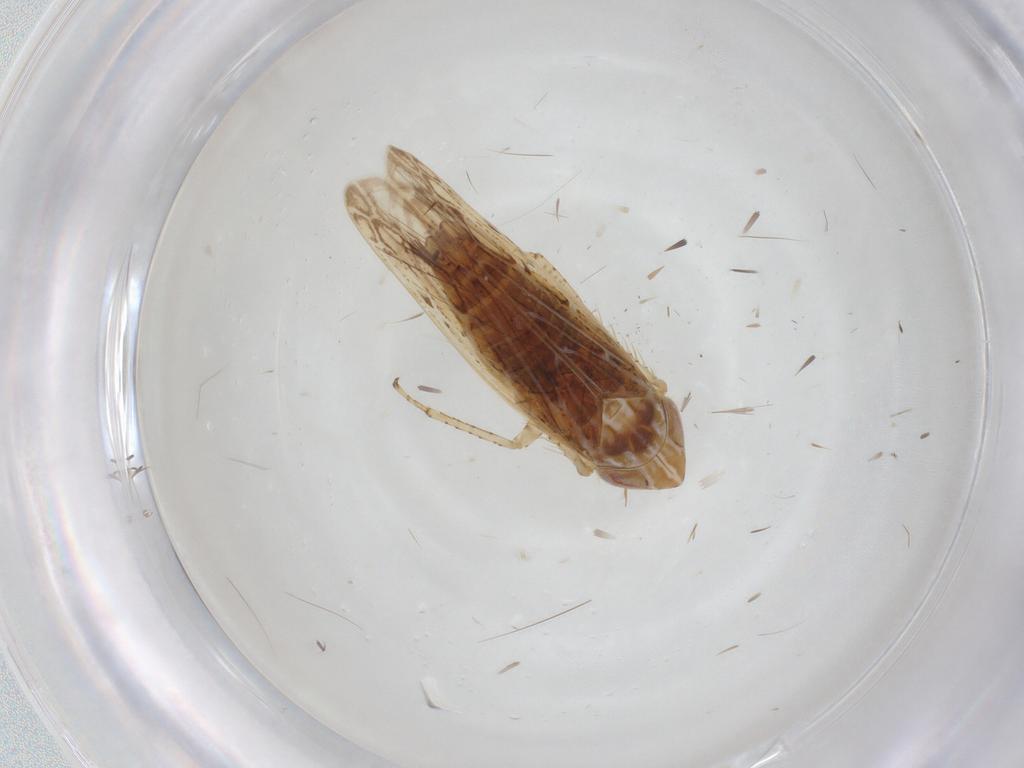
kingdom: Animalia
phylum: Arthropoda
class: Insecta
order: Hemiptera
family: Cicadellidae
